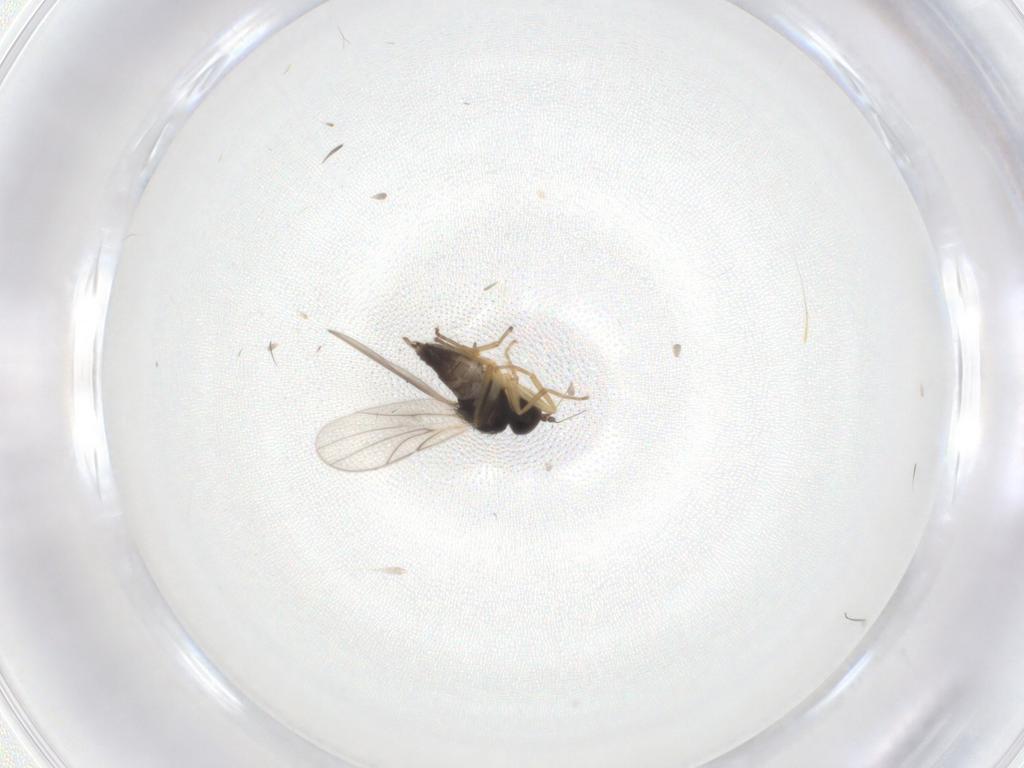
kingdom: Animalia
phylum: Arthropoda
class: Insecta
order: Diptera
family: Hybotidae
